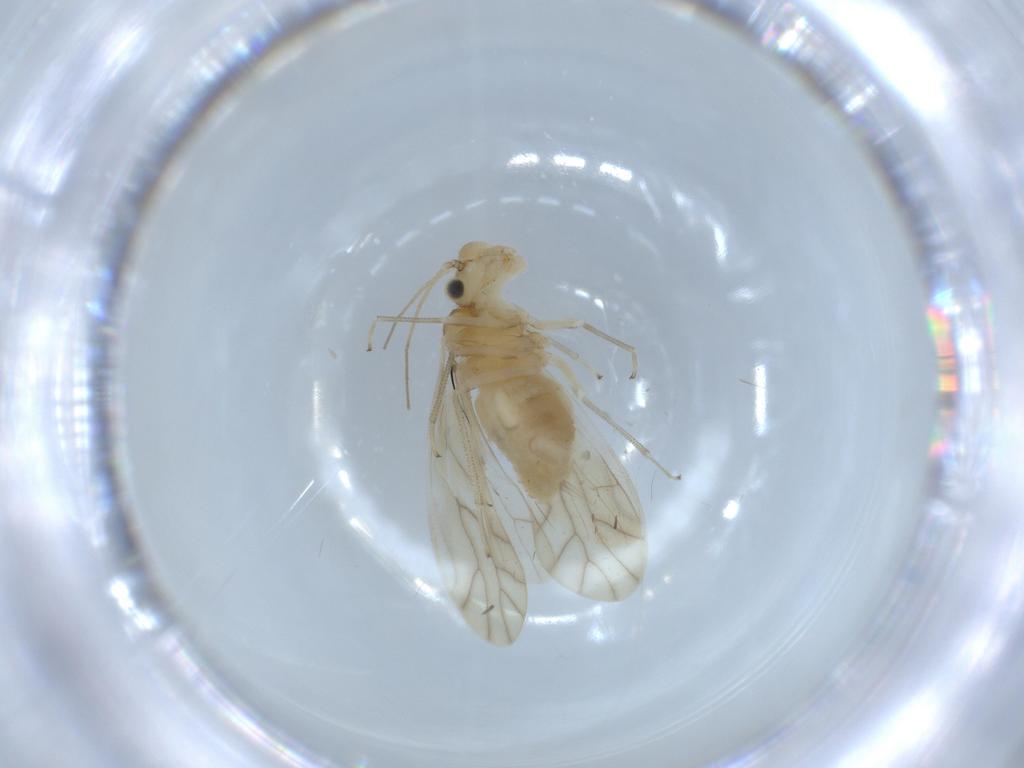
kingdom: Animalia
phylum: Arthropoda
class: Insecta
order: Psocodea
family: Caeciliusidae
